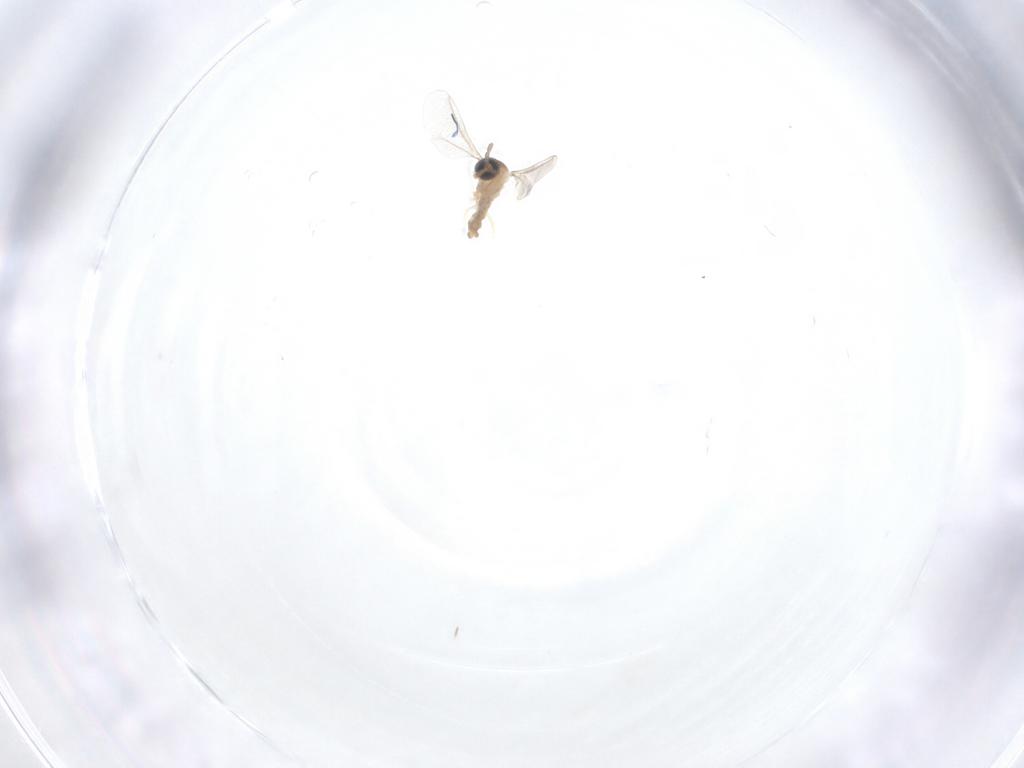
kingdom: Animalia
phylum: Arthropoda
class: Insecta
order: Diptera
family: Cecidomyiidae
